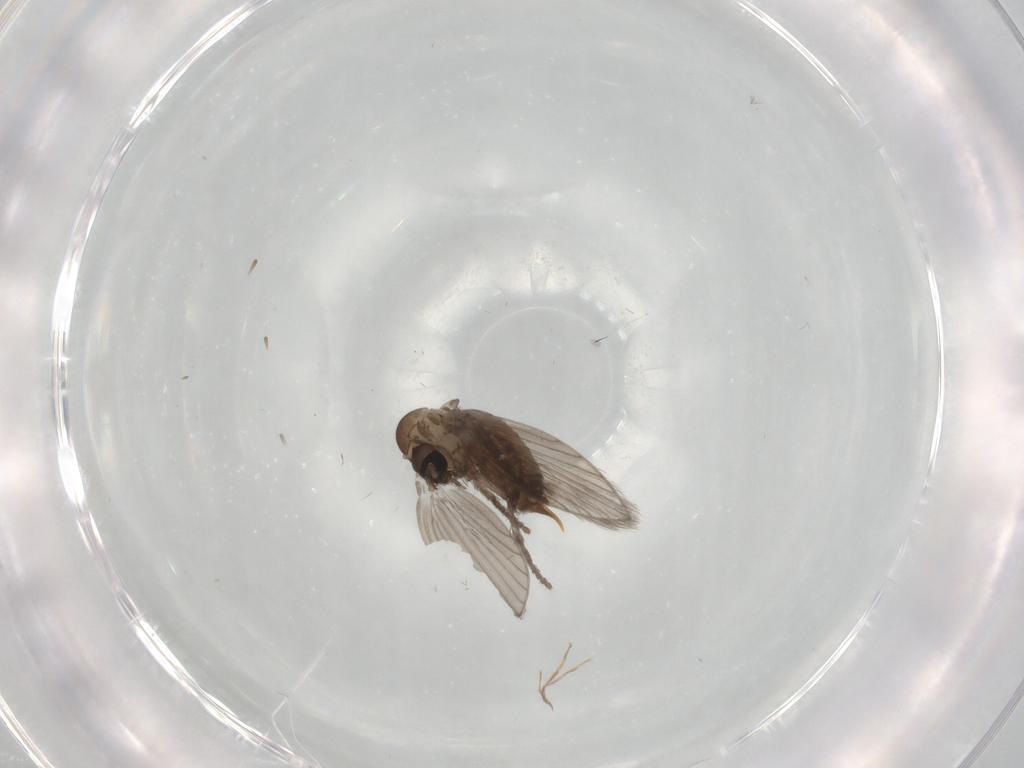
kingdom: Animalia
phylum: Arthropoda
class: Insecta
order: Diptera
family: Psychodidae
